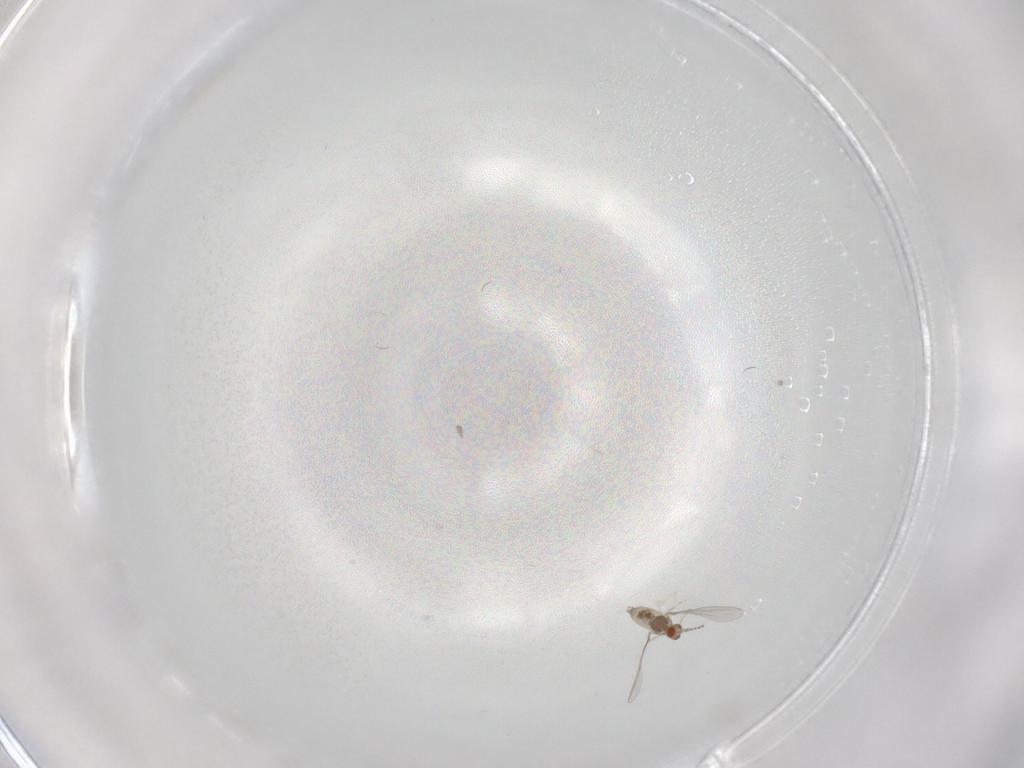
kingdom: Animalia
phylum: Arthropoda
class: Insecta
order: Diptera
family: Cecidomyiidae
